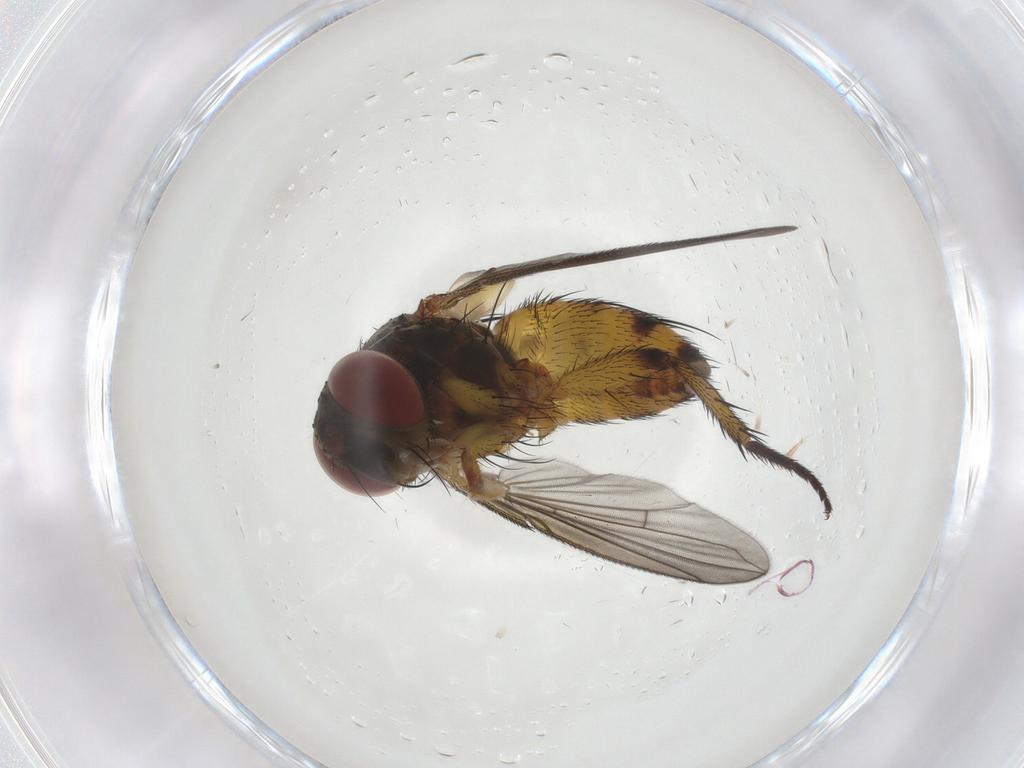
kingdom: Animalia
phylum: Arthropoda
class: Insecta
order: Diptera
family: Tachinidae
